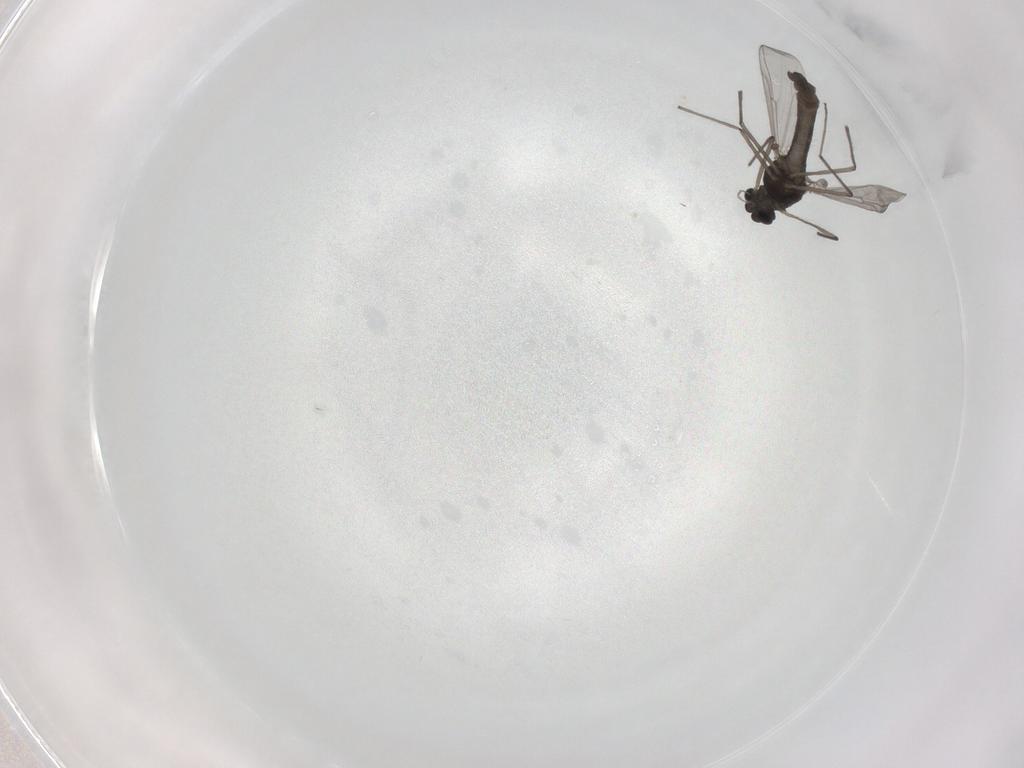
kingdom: Animalia
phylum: Arthropoda
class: Insecta
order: Diptera
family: Chironomidae
